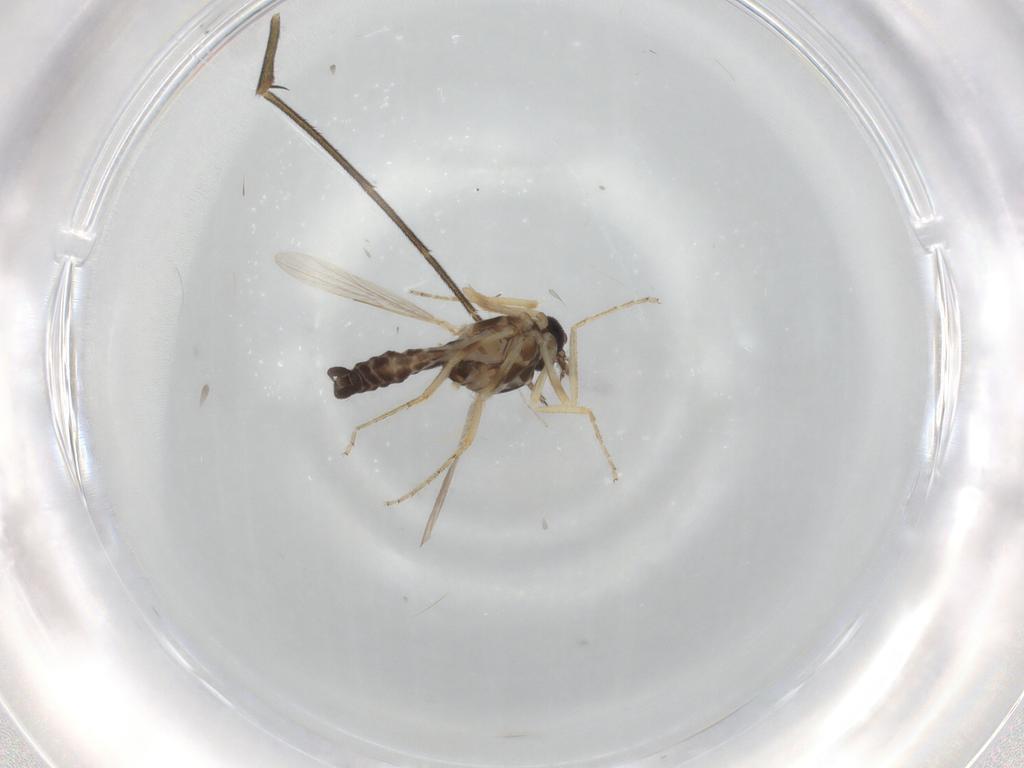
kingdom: Animalia
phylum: Arthropoda
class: Insecta
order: Diptera
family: Ceratopogonidae
